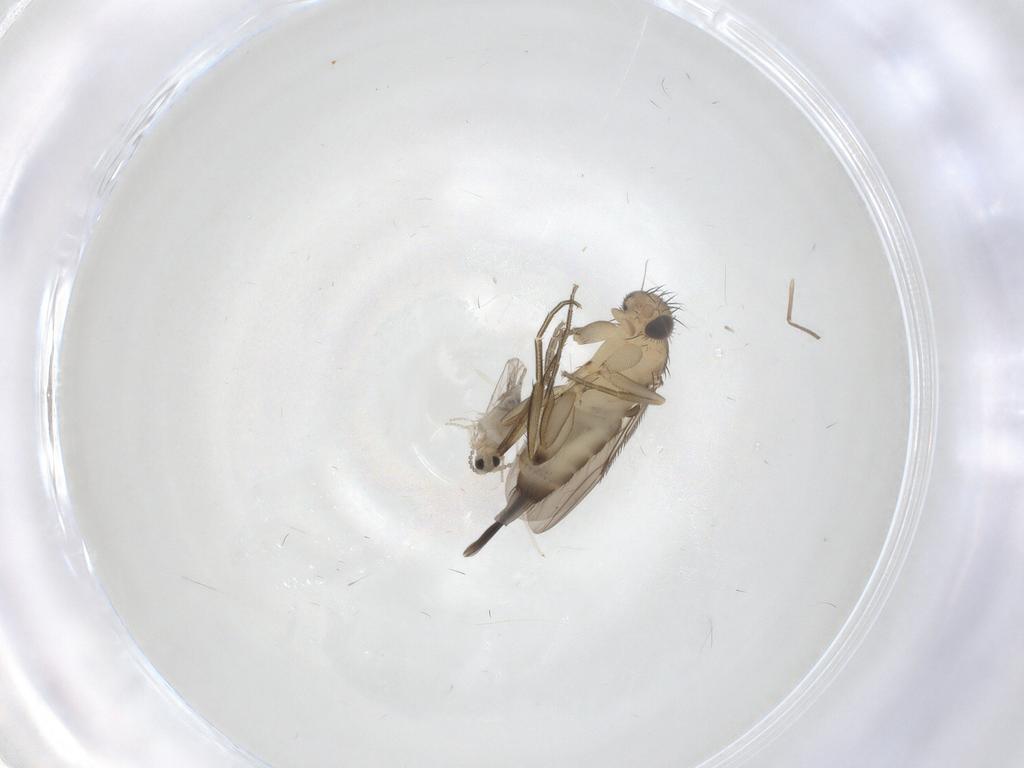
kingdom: Animalia
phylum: Arthropoda
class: Insecta
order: Diptera
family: Phoridae
